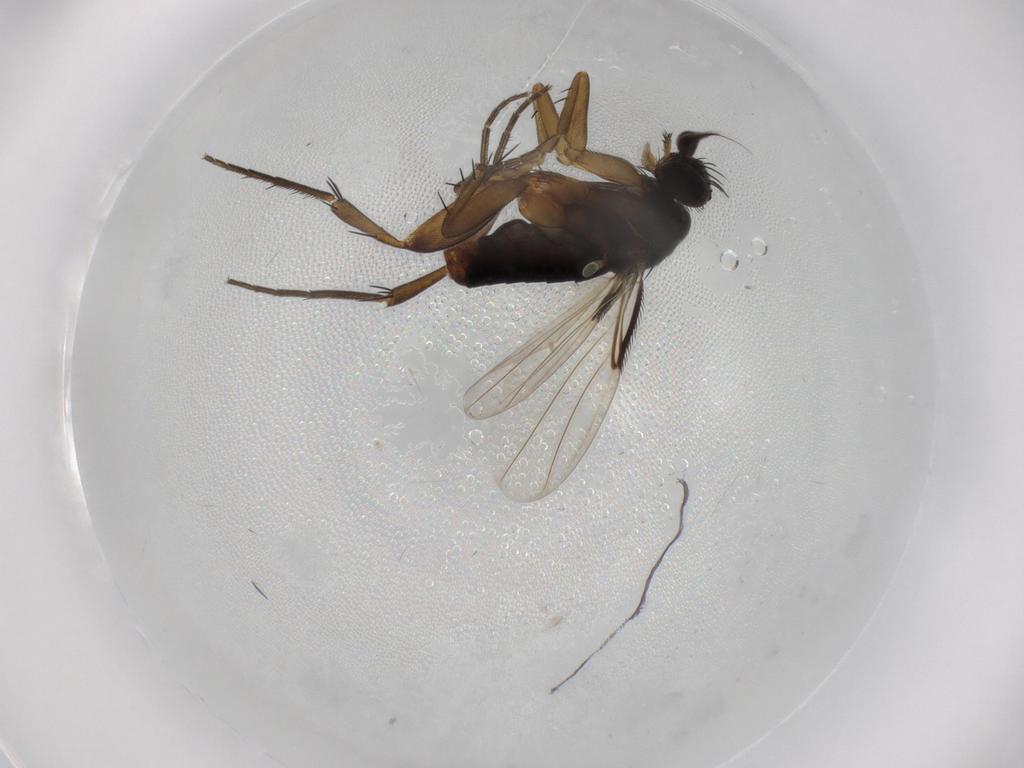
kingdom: Animalia
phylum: Arthropoda
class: Insecta
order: Diptera
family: Phoridae
